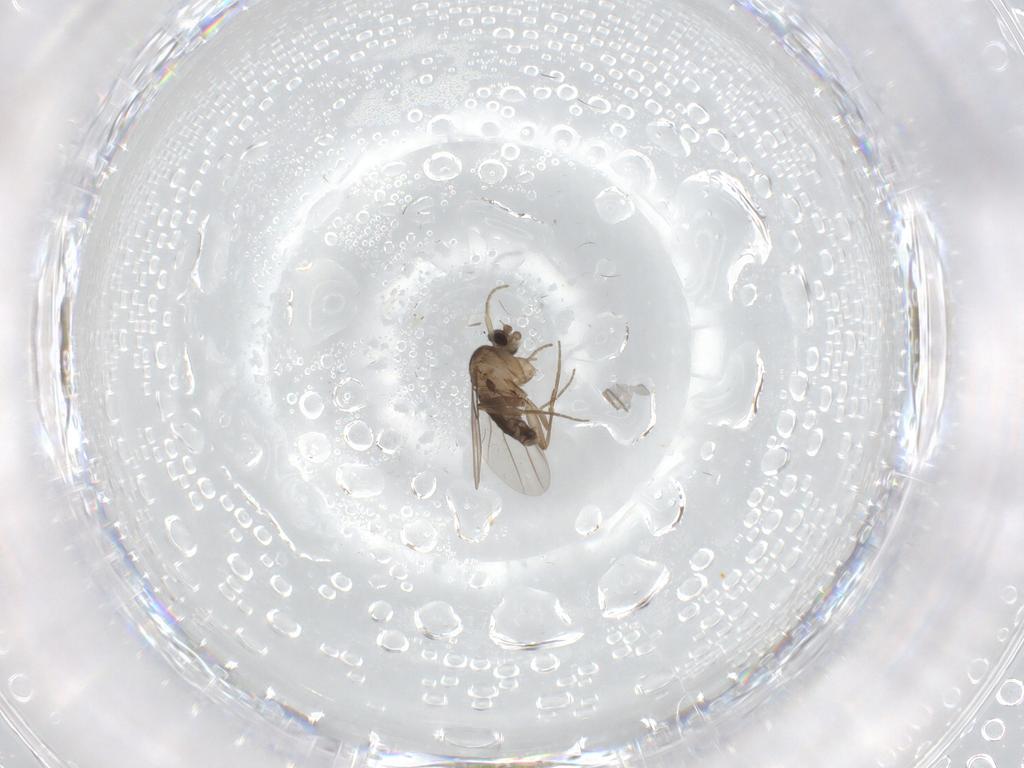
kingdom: Animalia
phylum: Arthropoda
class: Insecta
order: Diptera
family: Phoridae
